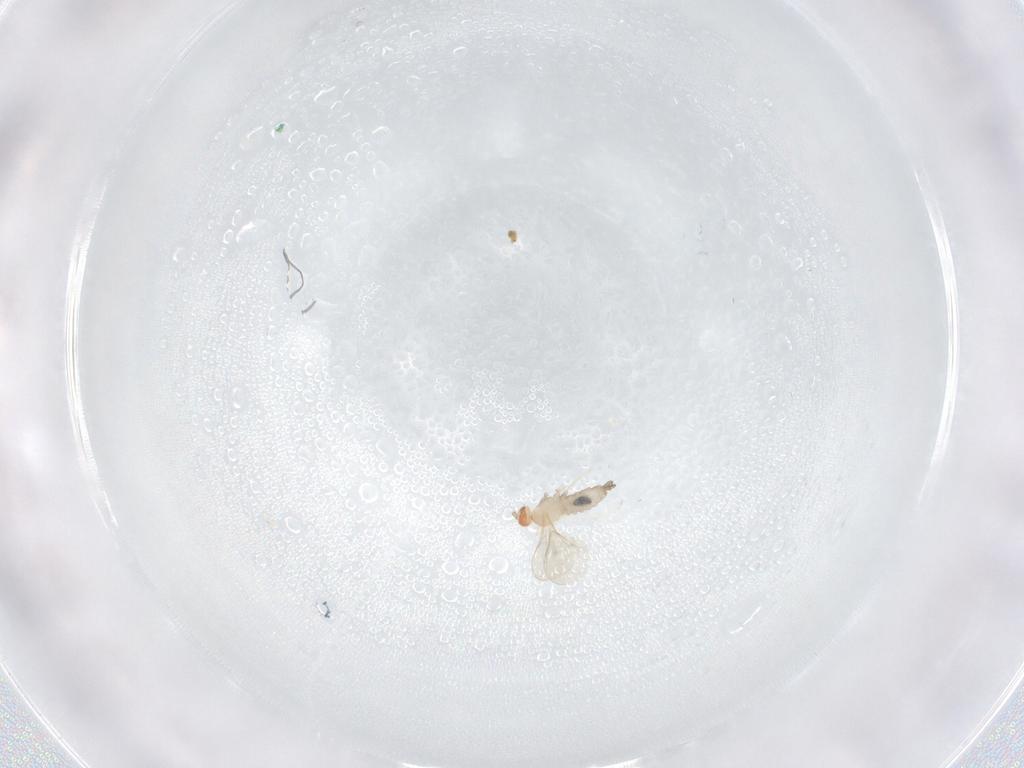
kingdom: Animalia
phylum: Arthropoda
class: Insecta
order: Diptera
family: Cecidomyiidae
